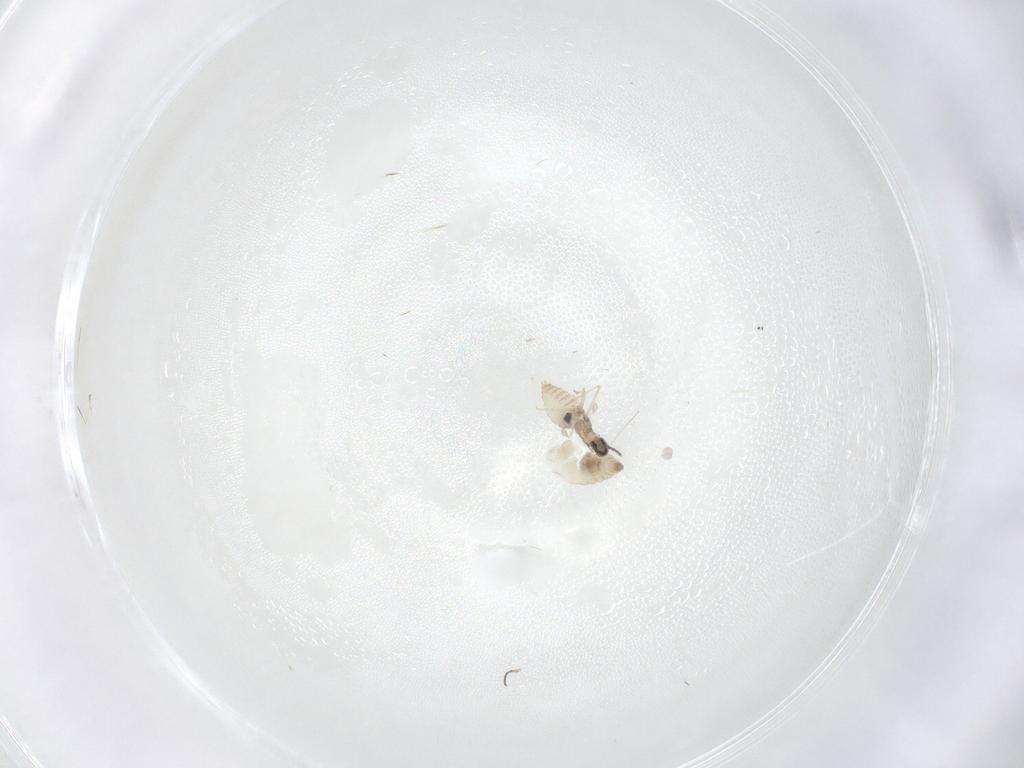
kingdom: Animalia
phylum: Arthropoda
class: Insecta
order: Diptera
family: Cecidomyiidae
